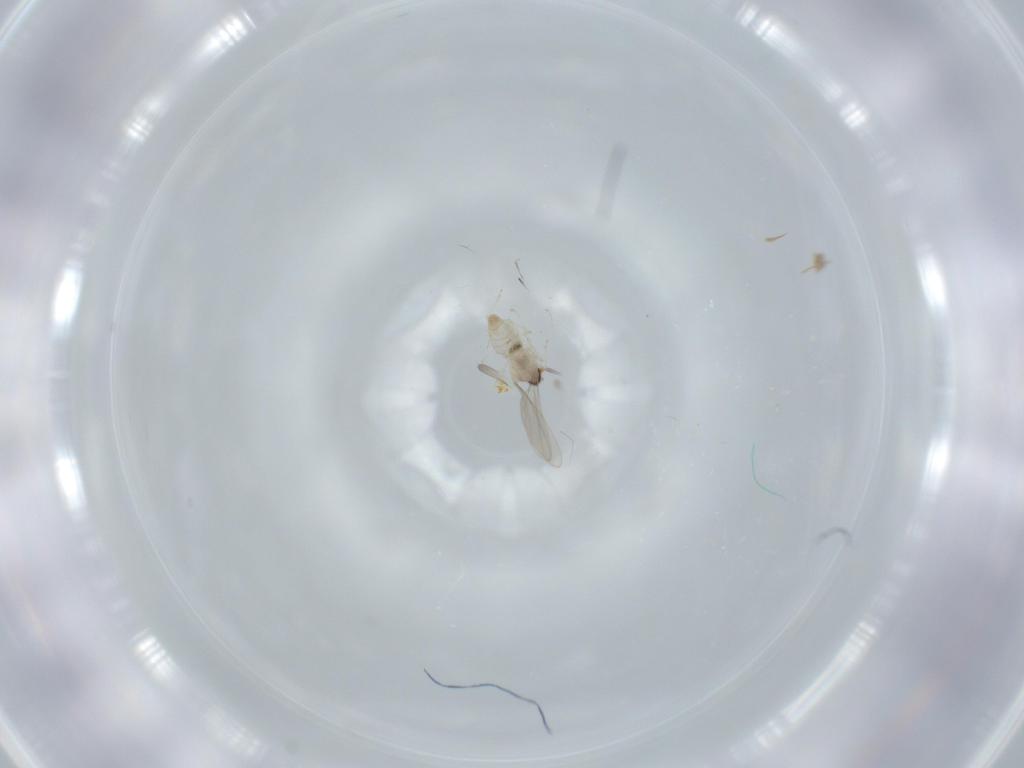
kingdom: Animalia
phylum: Arthropoda
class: Insecta
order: Diptera
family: Cecidomyiidae
